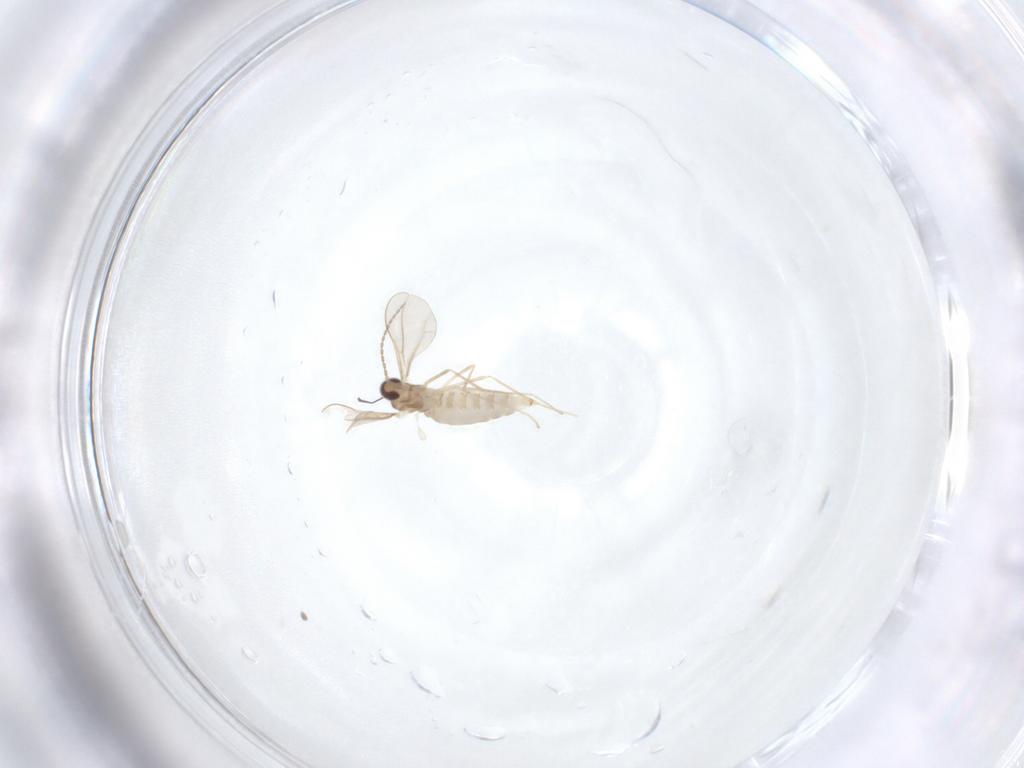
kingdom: Animalia
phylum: Arthropoda
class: Insecta
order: Diptera
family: Cecidomyiidae
